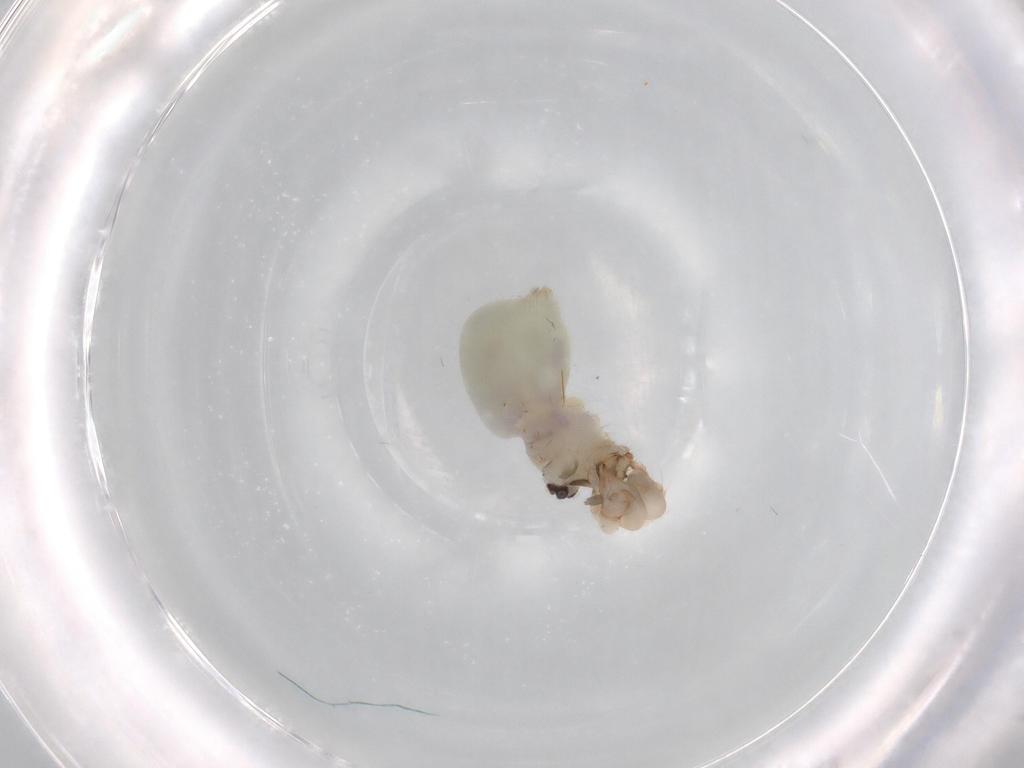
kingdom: Animalia
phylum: Arthropoda
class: Arachnida
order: Araneae
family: Pholcidae
